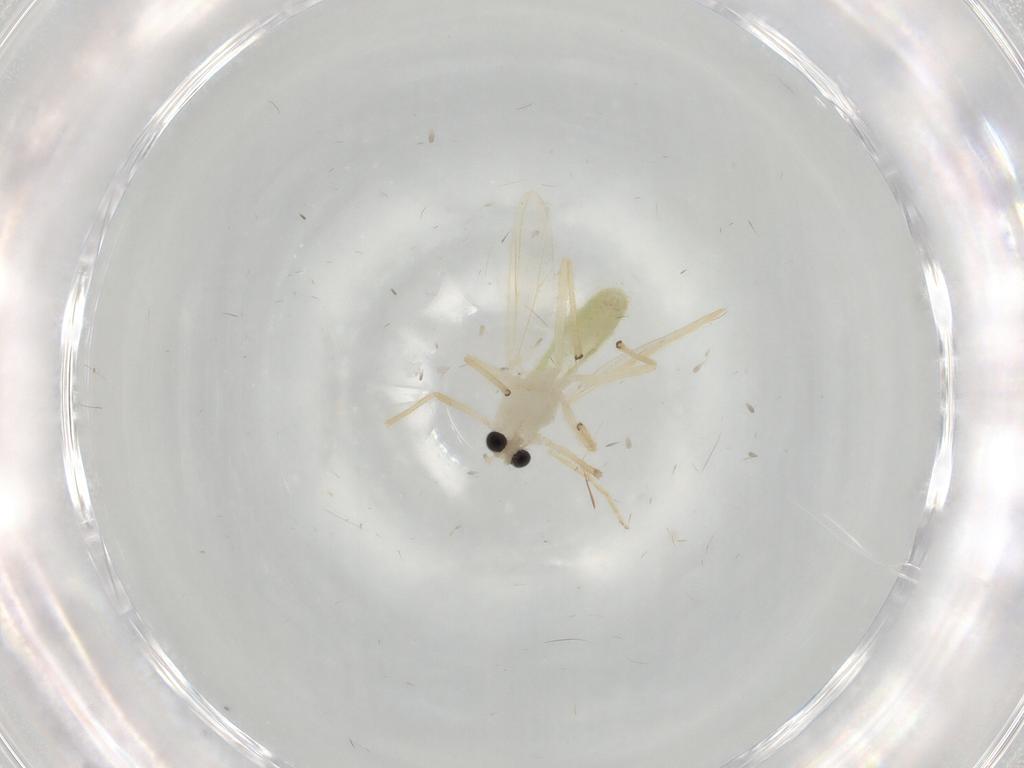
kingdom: Animalia
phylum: Arthropoda
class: Insecta
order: Diptera
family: Chironomidae
